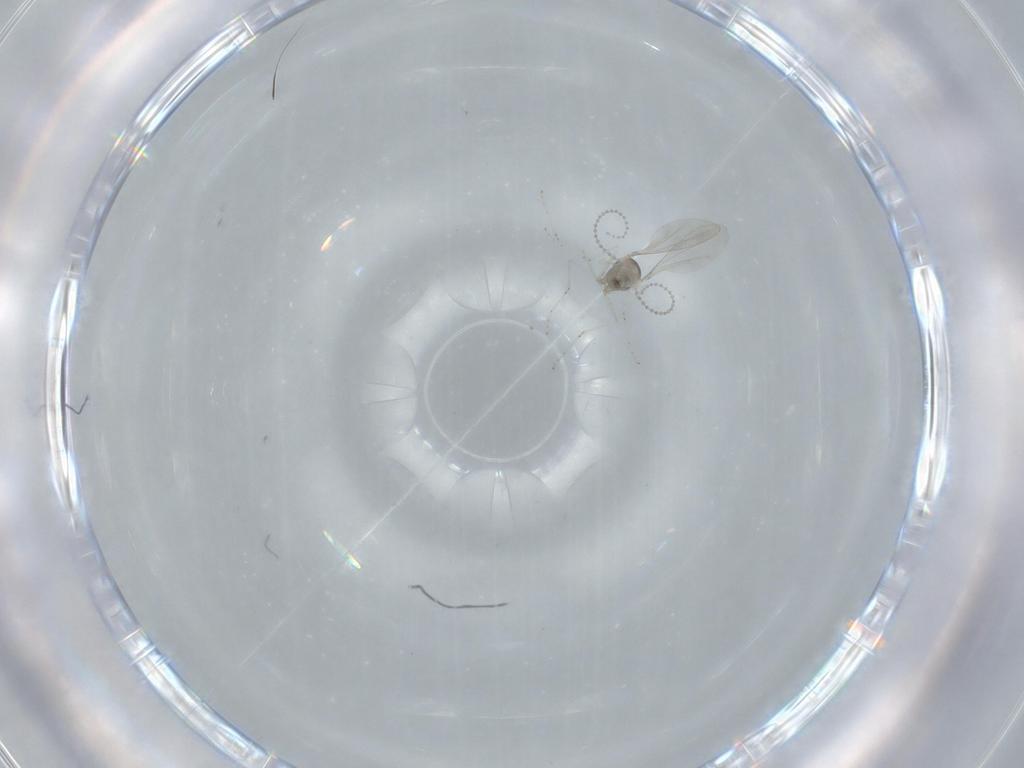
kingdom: Animalia
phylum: Arthropoda
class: Insecta
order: Diptera
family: Cecidomyiidae
